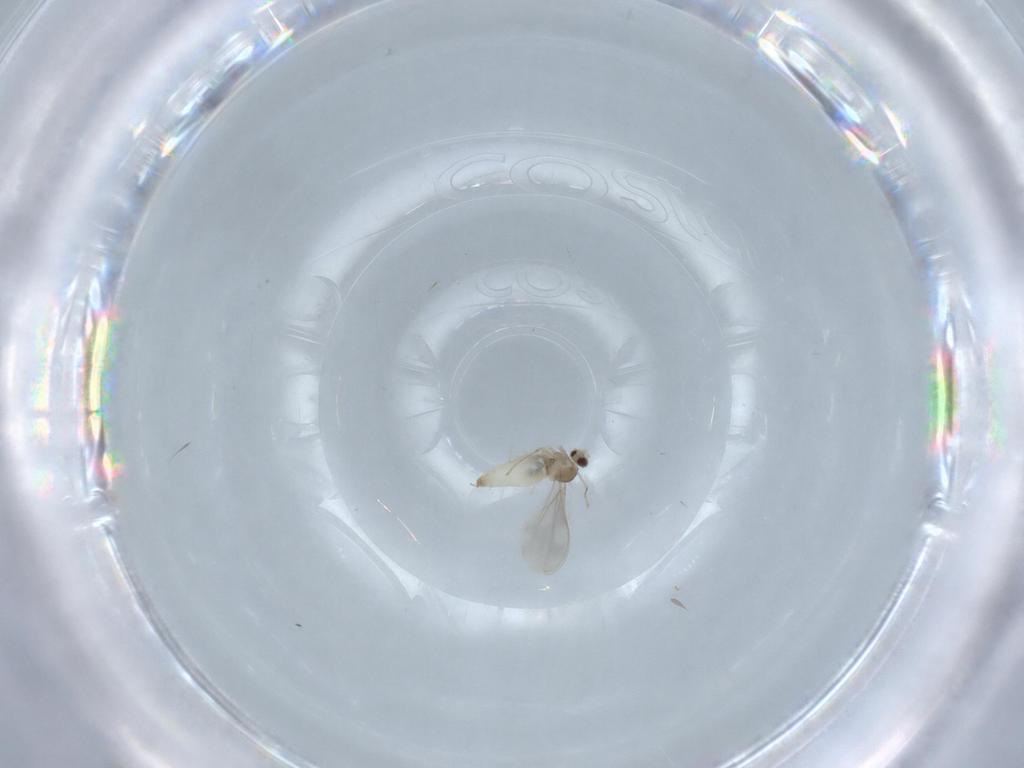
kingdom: Animalia
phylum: Arthropoda
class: Insecta
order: Diptera
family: Cecidomyiidae
